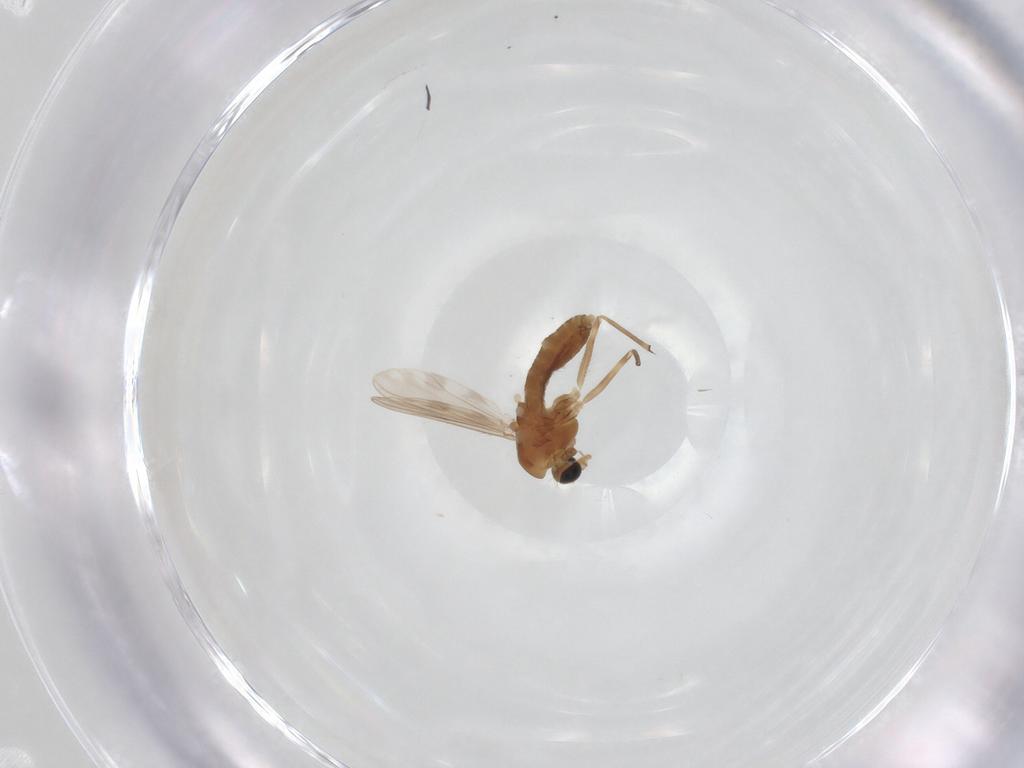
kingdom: Animalia
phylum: Arthropoda
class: Insecta
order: Diptera
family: Chironomidae
